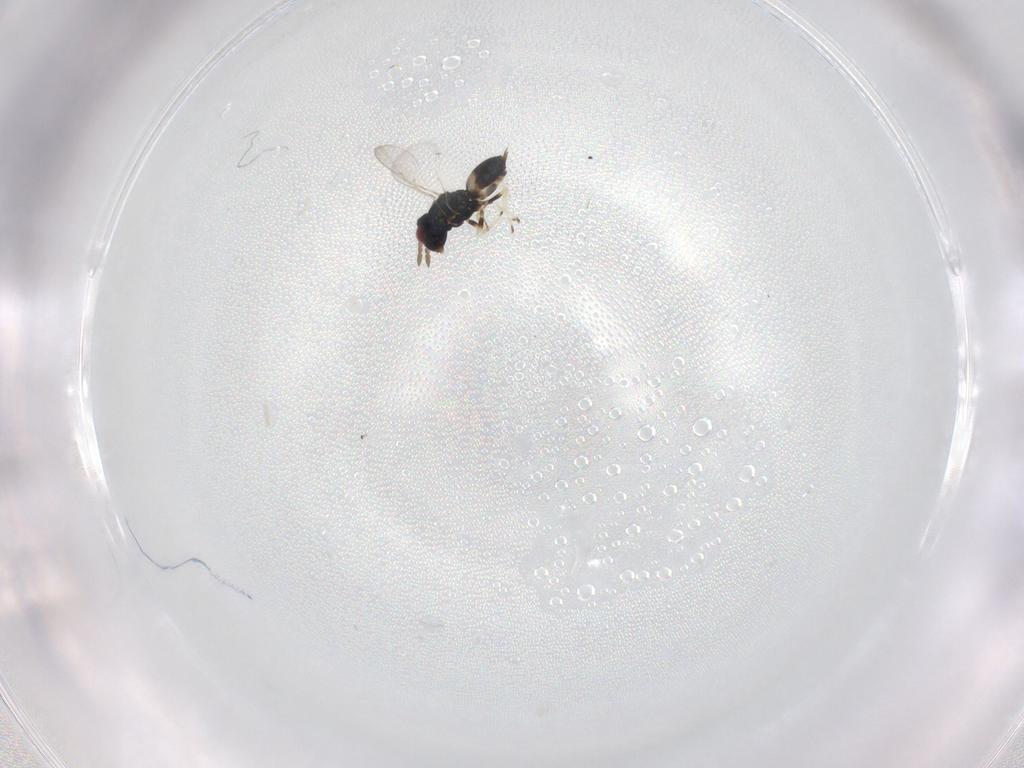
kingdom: Animalia
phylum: Arthropoda
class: Insecta
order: Hymenoptera
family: Eulophidae
